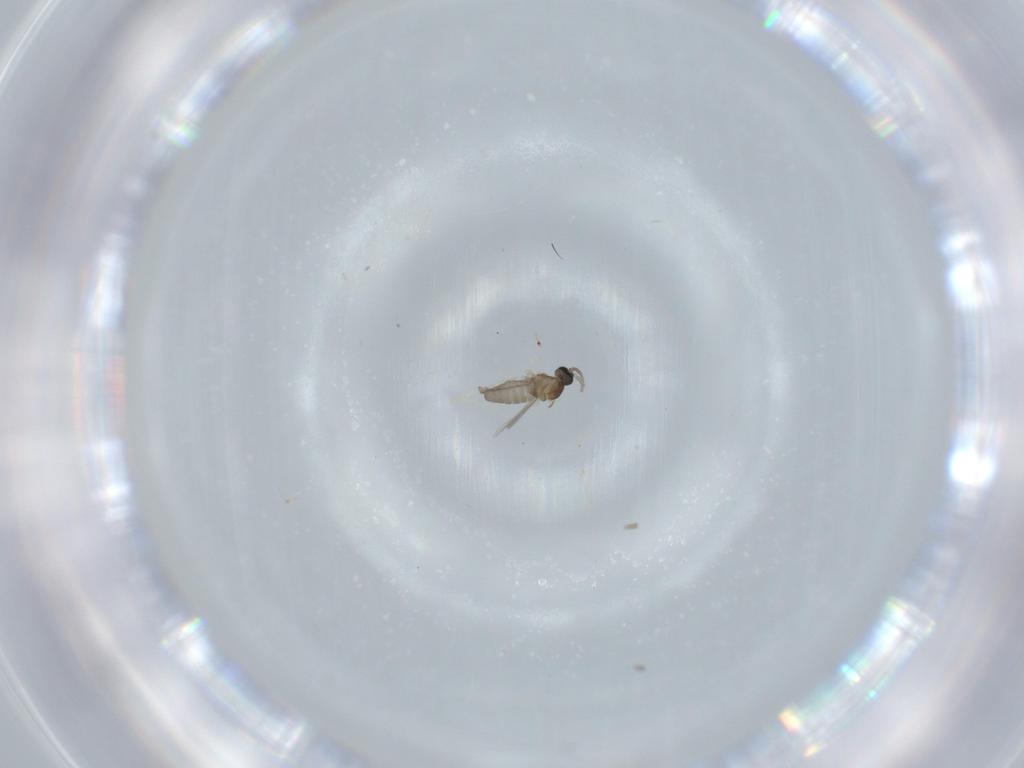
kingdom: Animalia
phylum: Arthropoda
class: Insecta
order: Diptera
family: Cecidomyiidae
